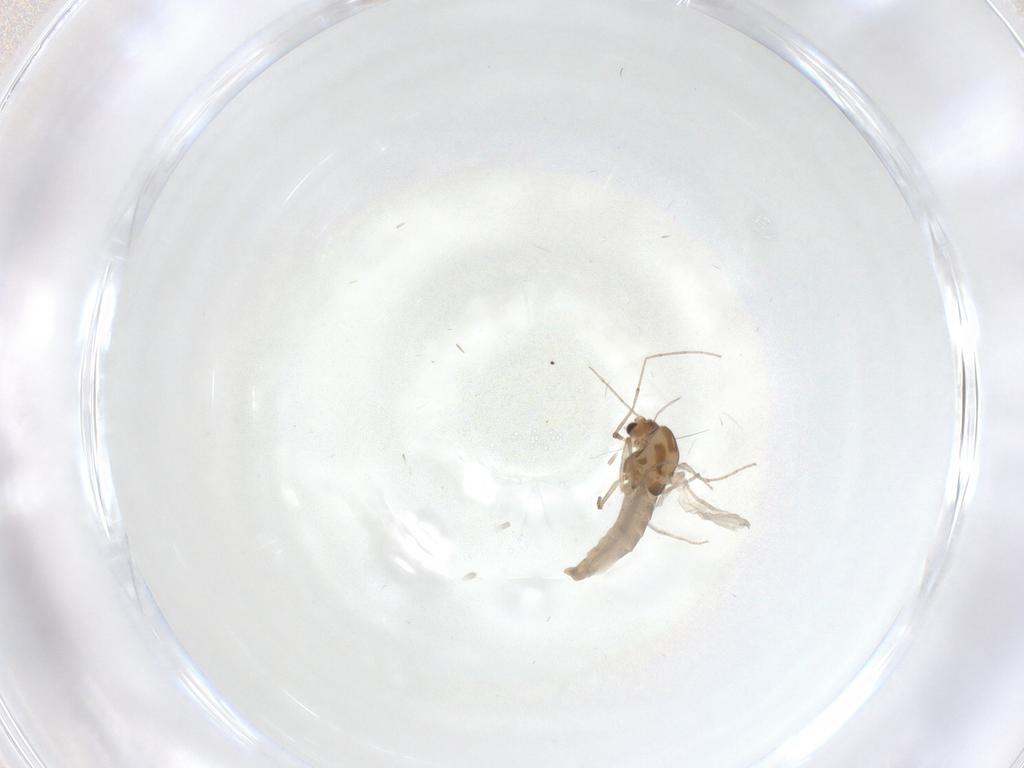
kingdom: Animalia
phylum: Arthropoda
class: Insecta
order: Diptera
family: Chironomidae
